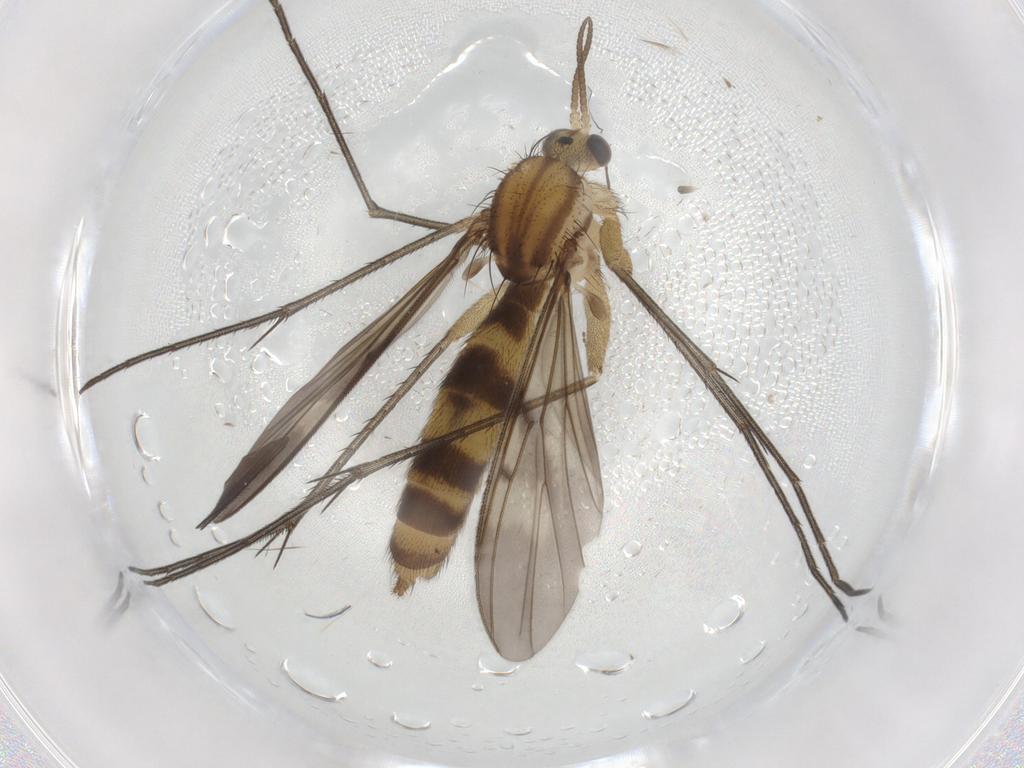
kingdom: Animalia
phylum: Arthropoda
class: Insecta
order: Diptera
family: Mycetophilidae
